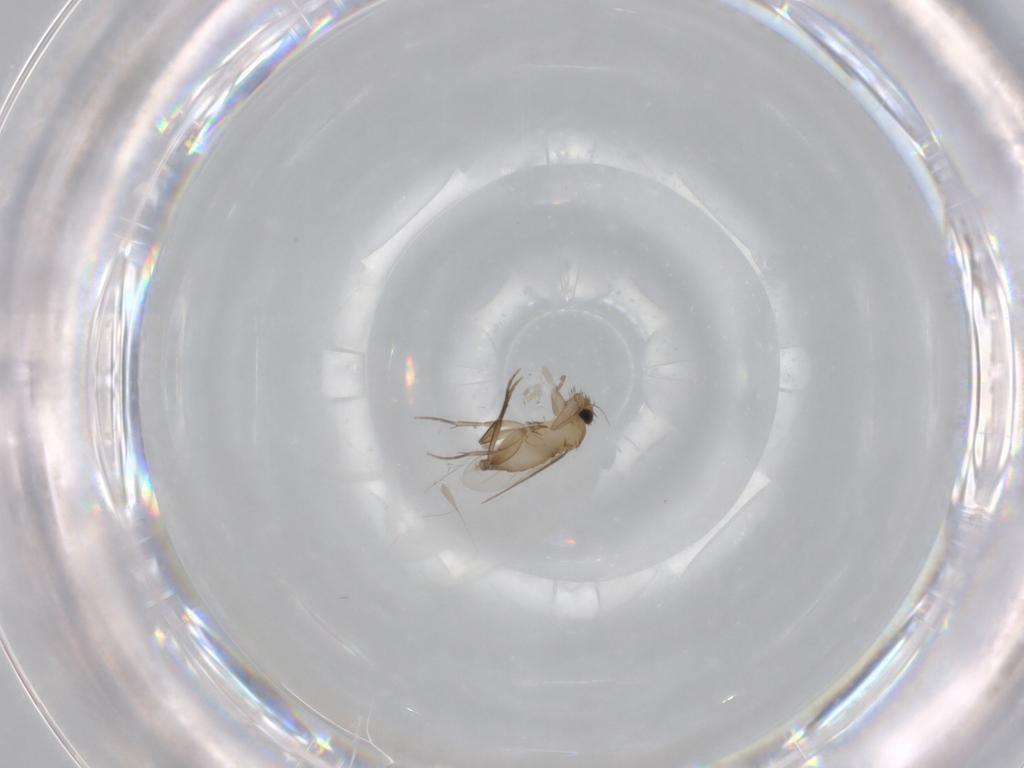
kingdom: Animalia
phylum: Arthropoda
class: Insecta
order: Diptera
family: Phoridae
